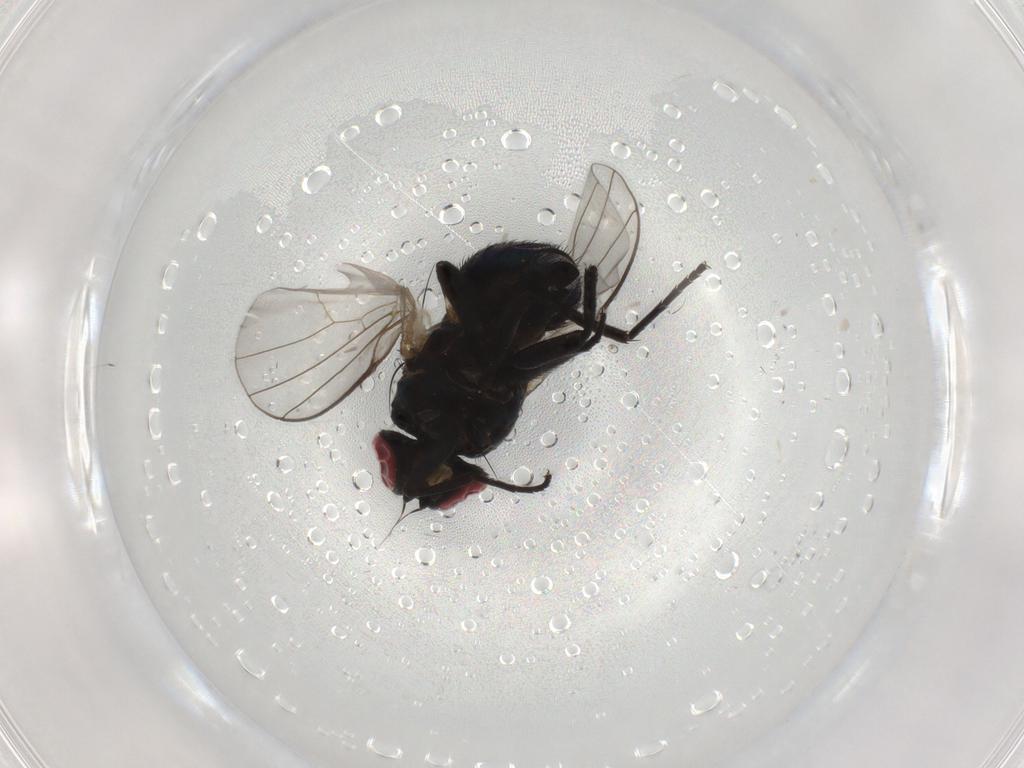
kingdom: Animalia
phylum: Arthropoda
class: Insecta
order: Diptera
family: Agromyzidae
